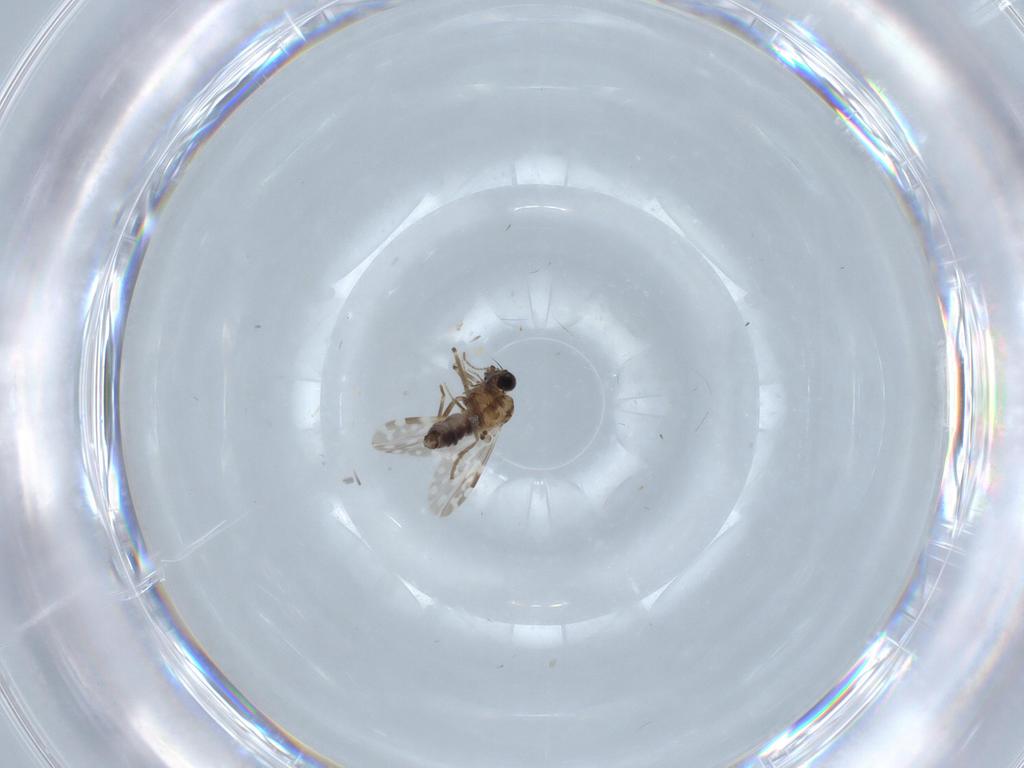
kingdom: Animalia
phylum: Arthropoda
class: Insecta
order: Diptera
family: Ceratopogonidae
